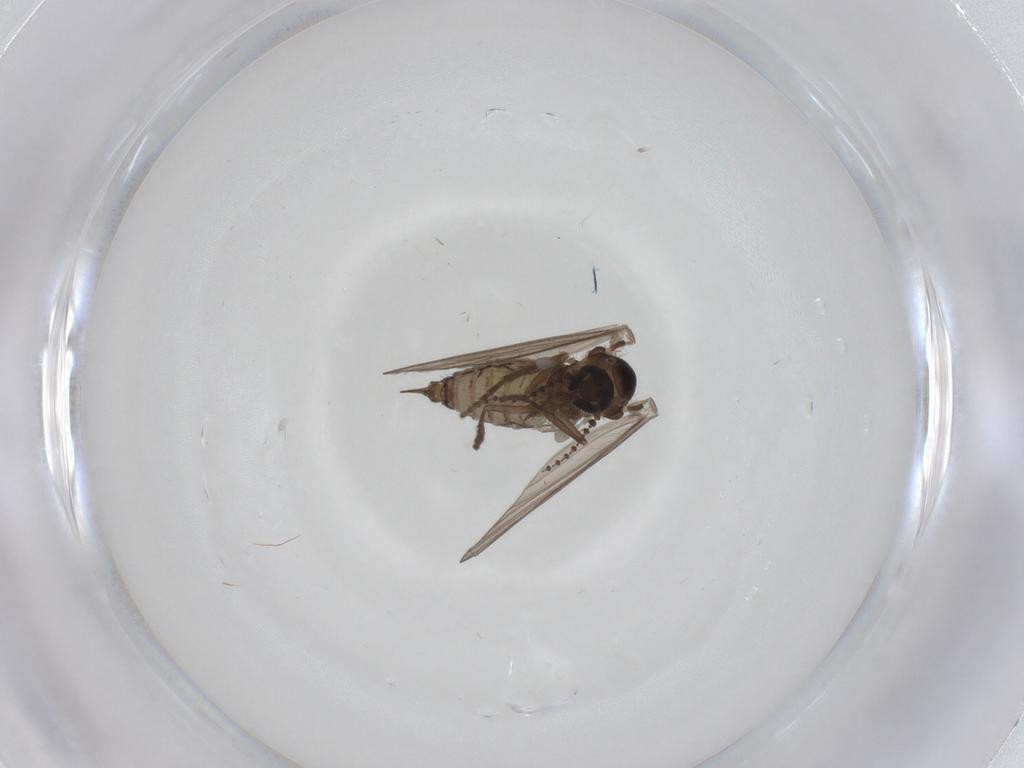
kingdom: Animalia
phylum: Arthropoda
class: Insecta
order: Diptera
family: Psychodidae
